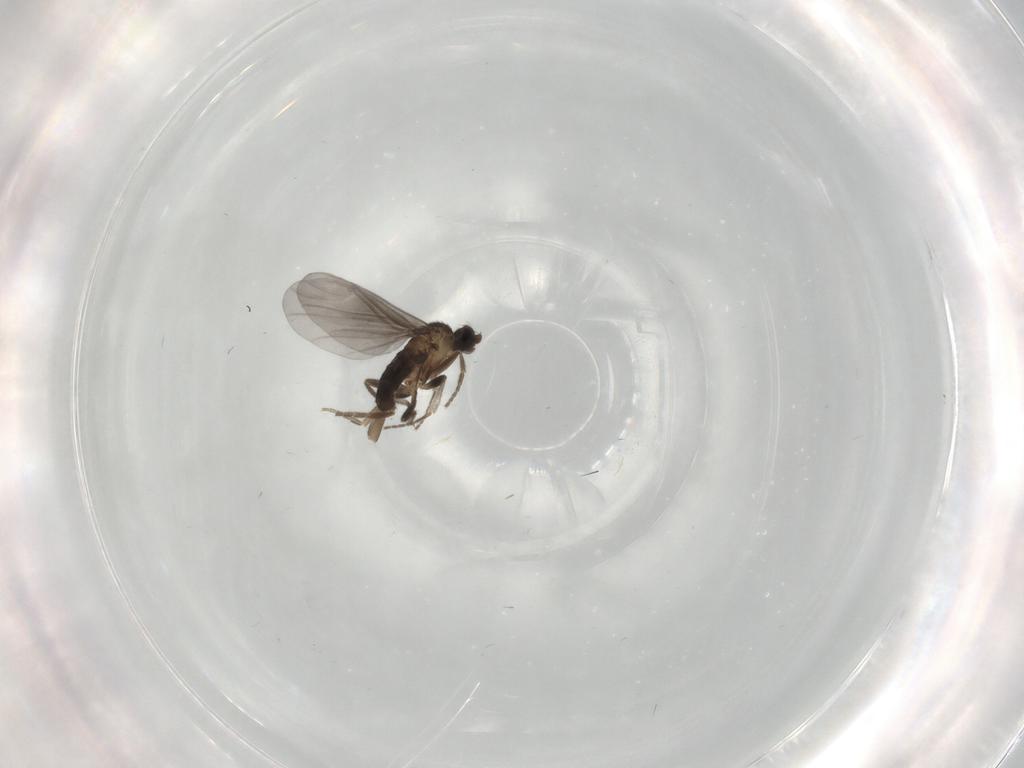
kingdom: Animalia
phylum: Arthropoda
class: Insecta
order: Diptera
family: Phoridae
